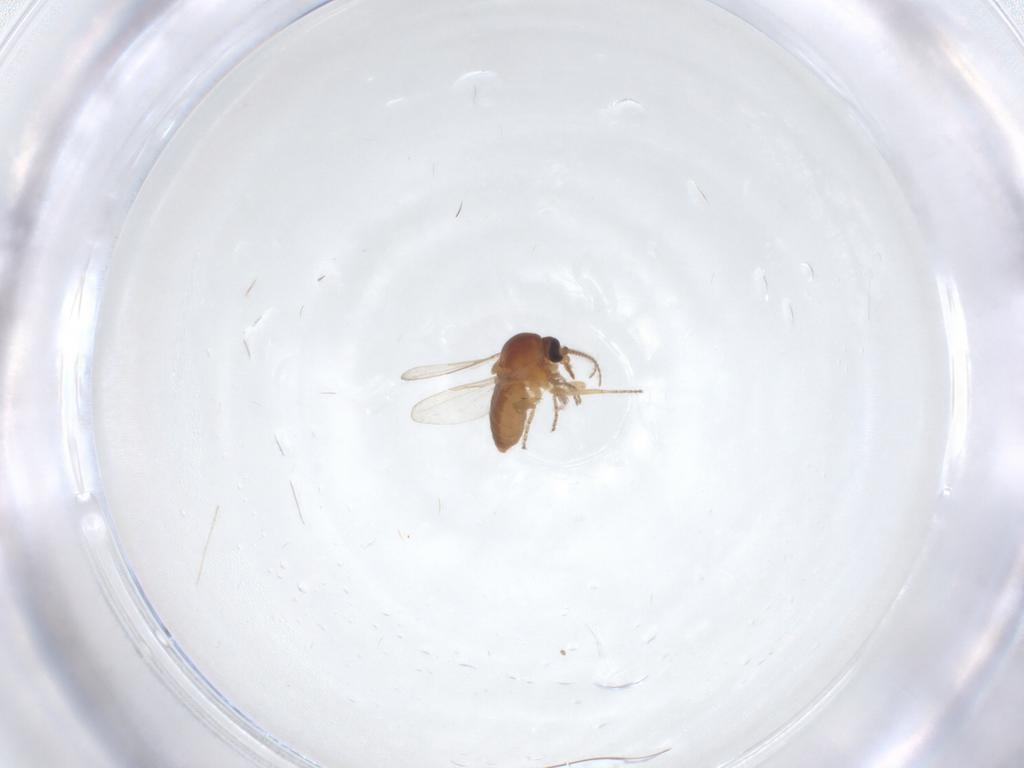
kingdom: Animalia
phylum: Arthropoda
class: Insecta
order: Diptera
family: Ceratopogonidae
